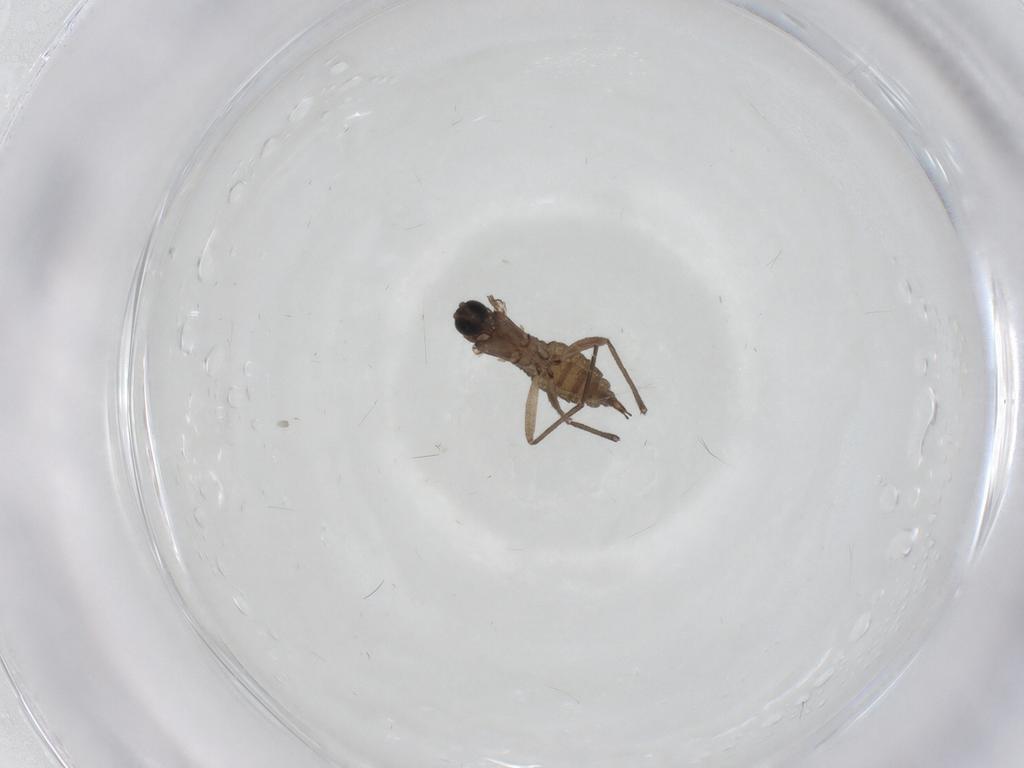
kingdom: Animalia
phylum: Arthropoda
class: Insecta
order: Diptera
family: Sciaridae
